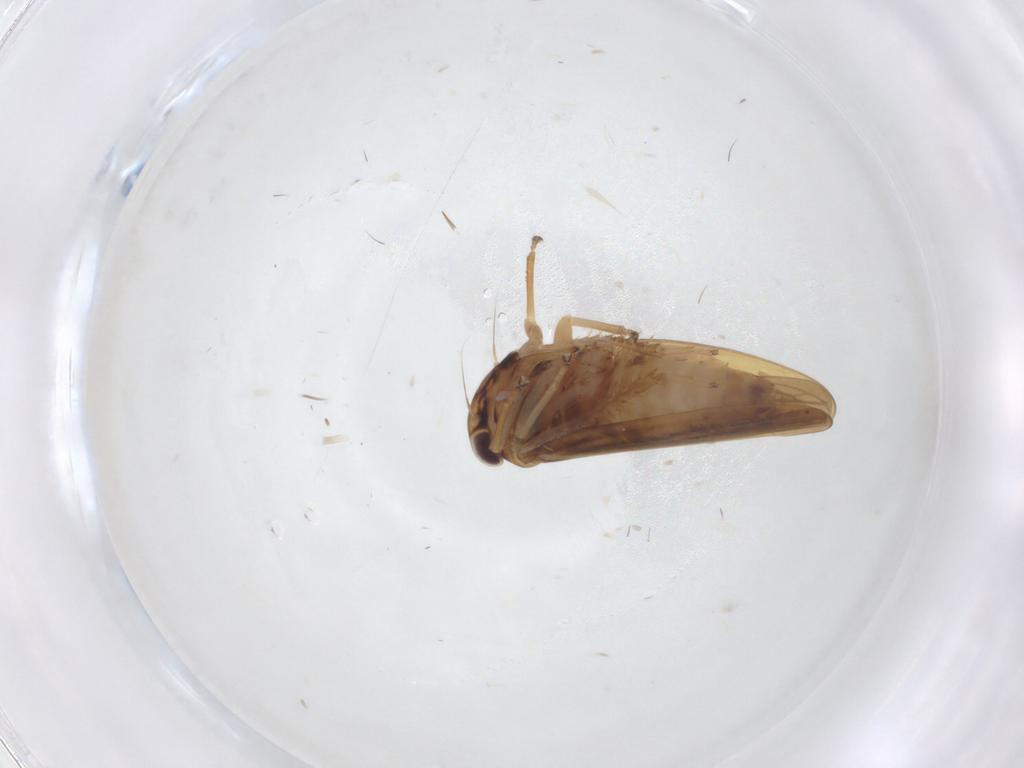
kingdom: Animalia
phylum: Arthropoda
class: Insecta
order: Hemiptera
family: Cicadellidae
